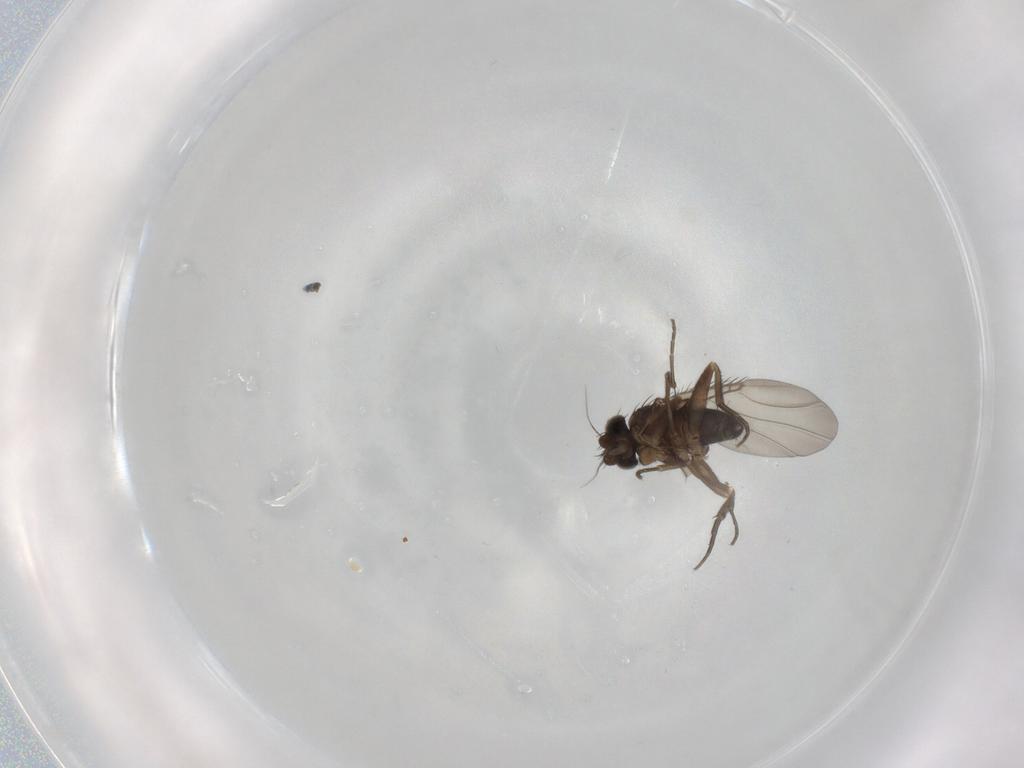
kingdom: Animalia
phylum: Arthropoda
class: Insecta
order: Diptera
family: Phoridae
